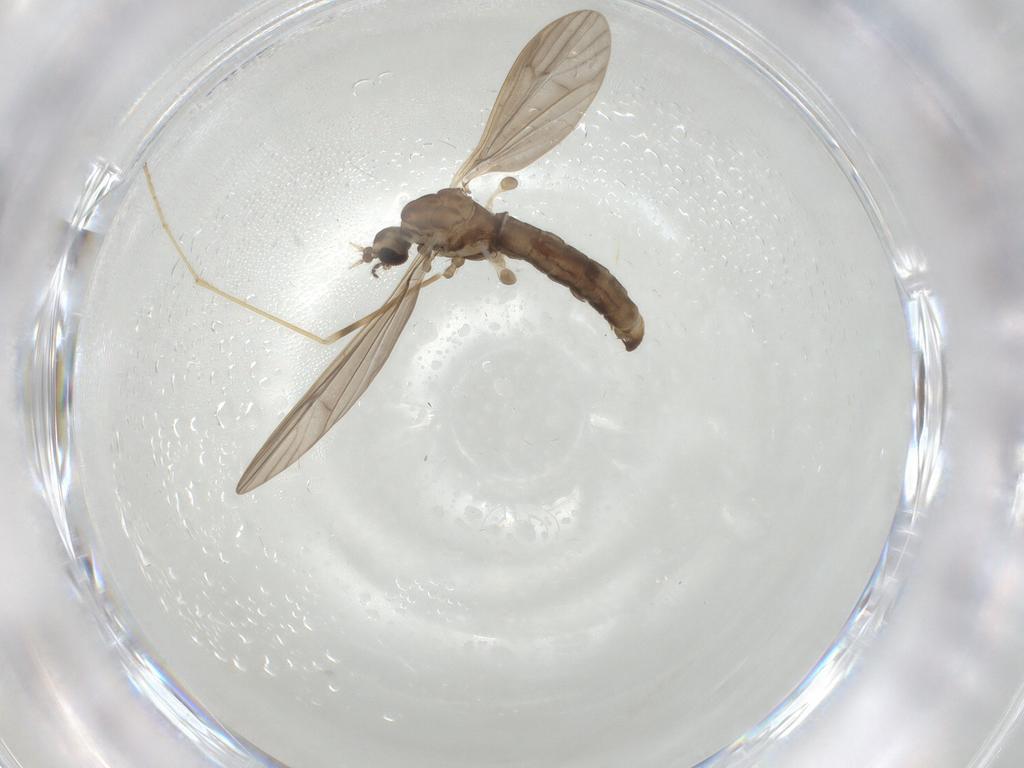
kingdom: Animalia
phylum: Arthropoda
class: Insecta
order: Diptera
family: Limoniidae
